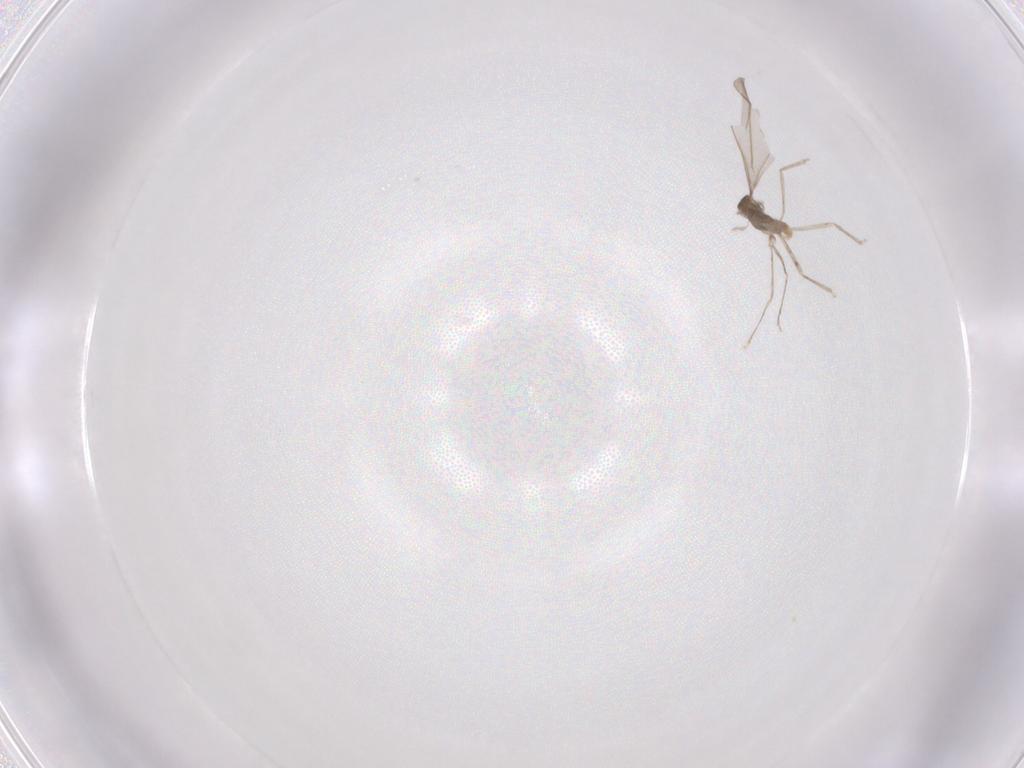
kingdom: Animalia
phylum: Arthropoda
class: Insecta
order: Diptera
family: Cecidomyiidae
